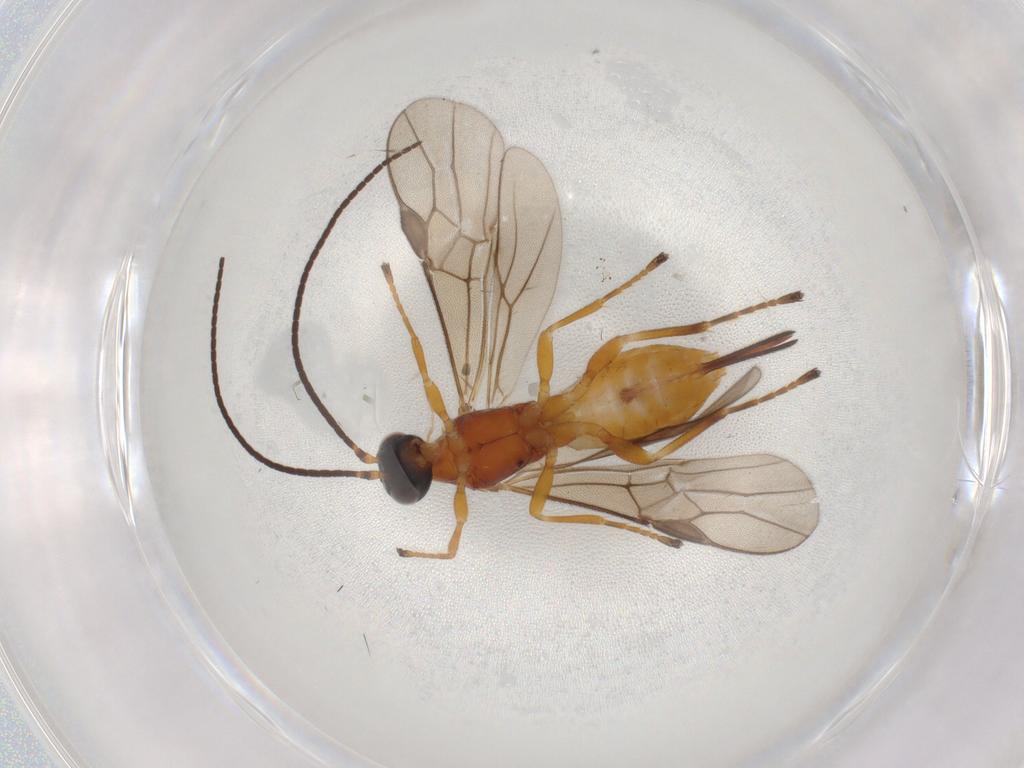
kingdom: Animalia
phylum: Arthropoda
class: Insecta
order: Hymenoptera
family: Braconidae
